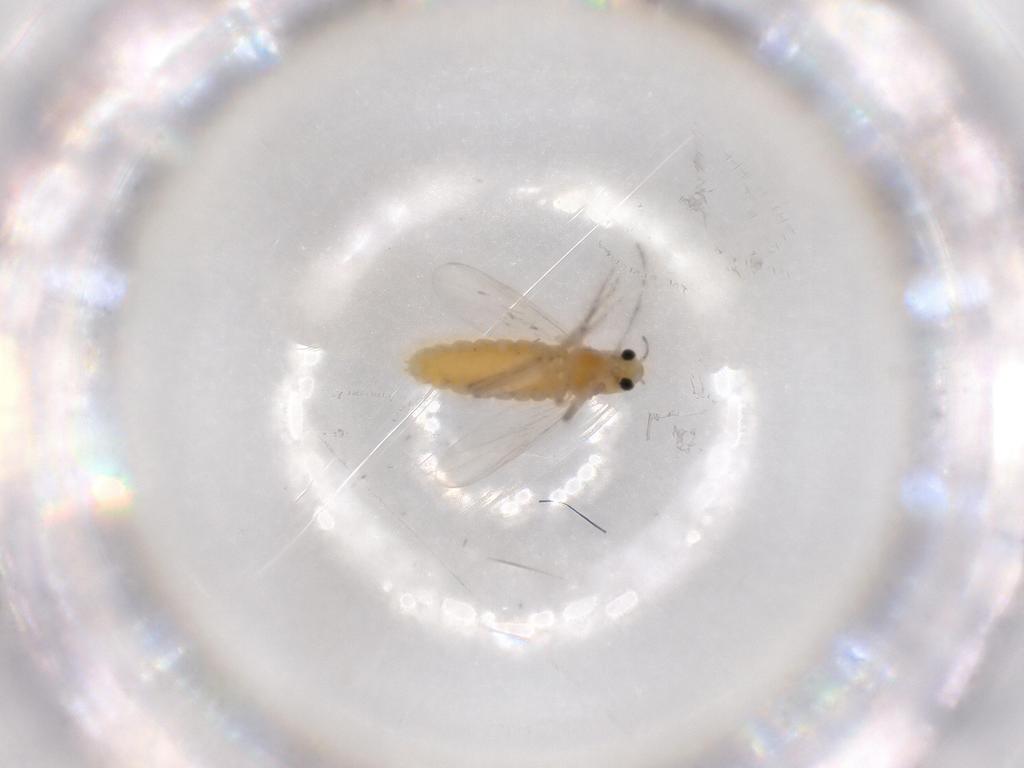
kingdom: Animalia
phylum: Arthropoda
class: Insecta
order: Diptera
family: Chironomidae
